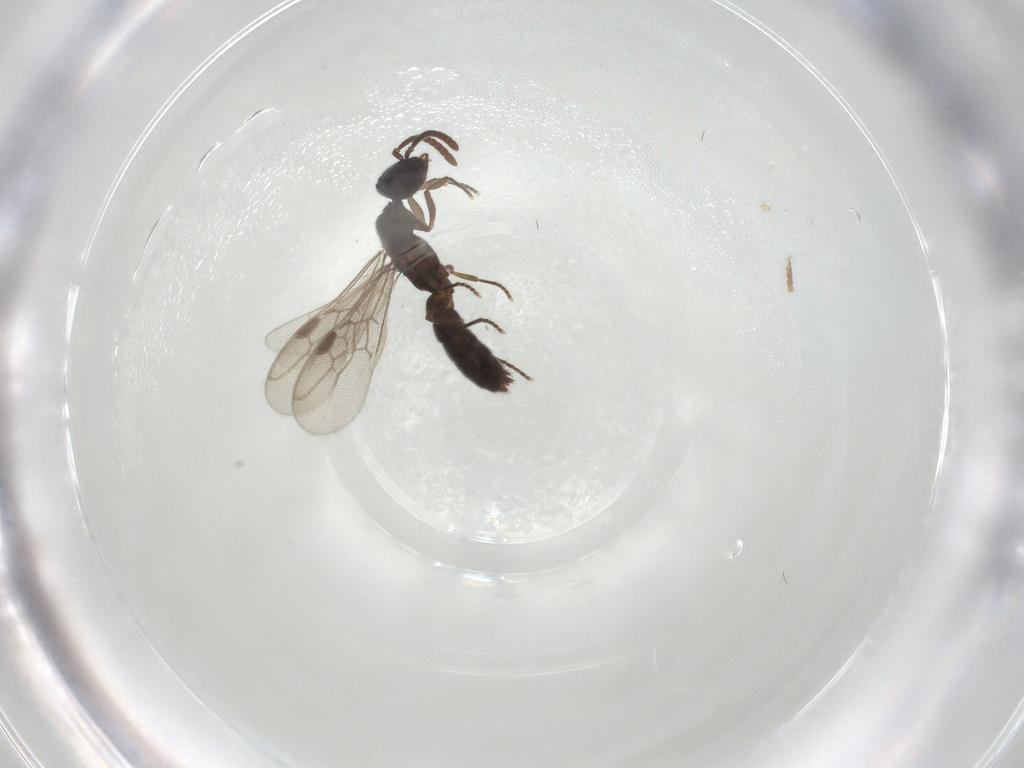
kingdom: Animalia
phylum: Arthropoda
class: Insecta
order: Hymenoptera
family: Formicidae
